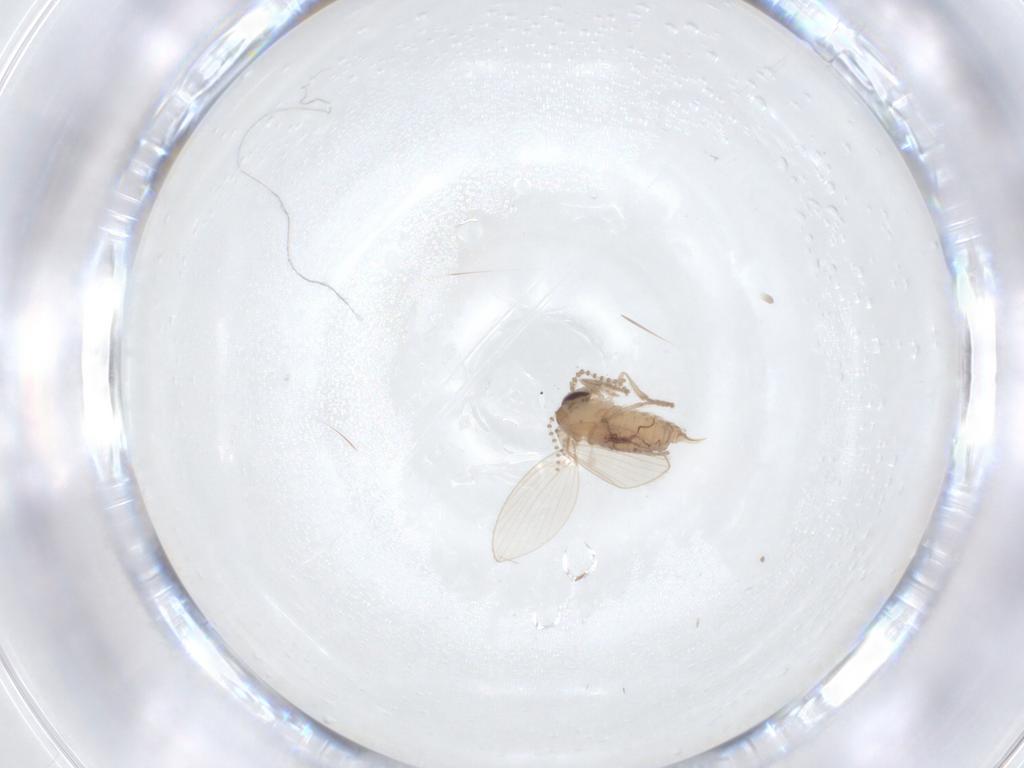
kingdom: Animalia
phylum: Arthropoda
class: Insecta
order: Diptera
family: Psychodidae
